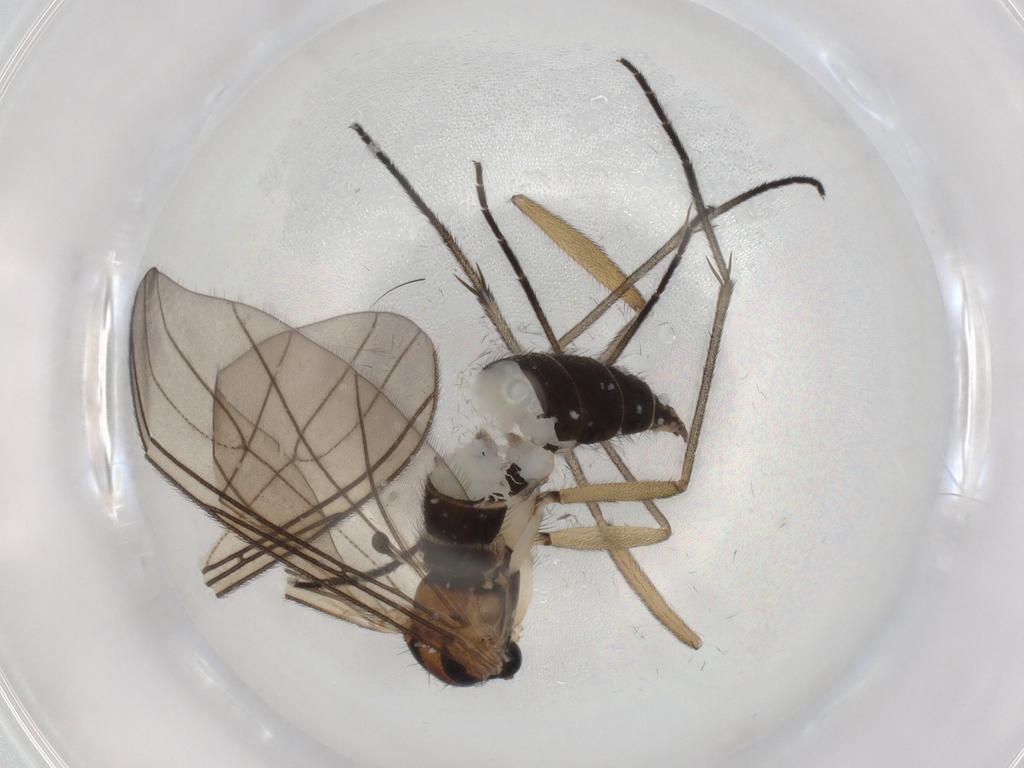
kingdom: Animalia
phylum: Arthropoda
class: Insecta
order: Diptera
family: Sciaridae
